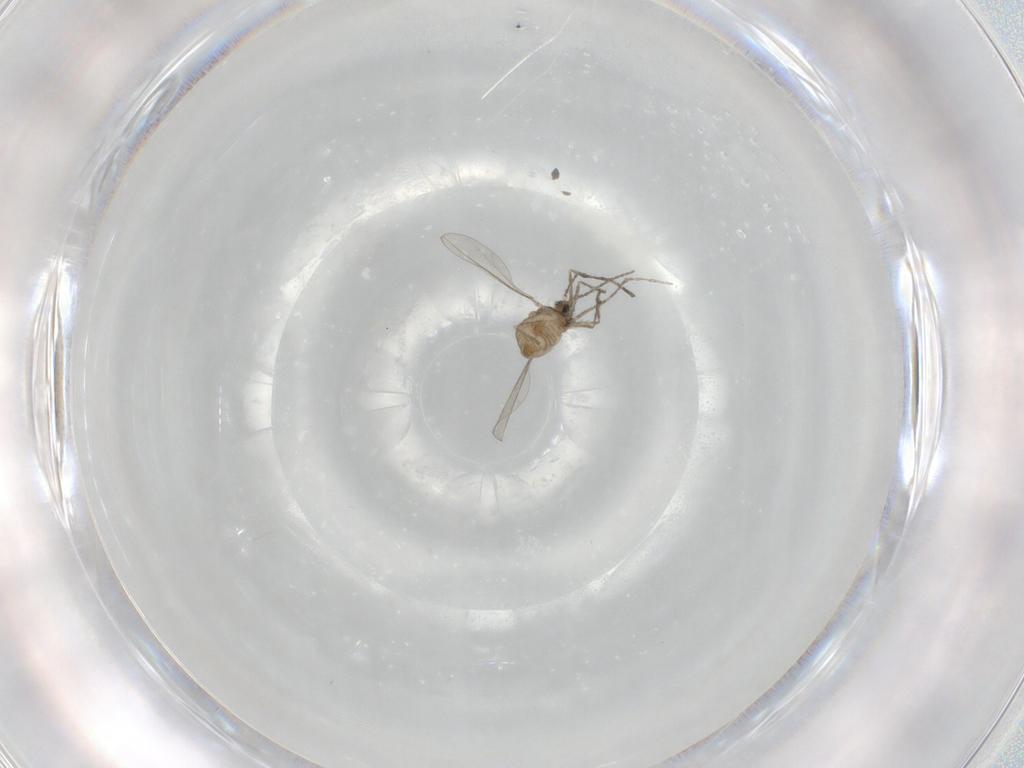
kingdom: Animalia
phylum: Arthropoda
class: Insecta
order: Diptera
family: Cecidomyiidae
